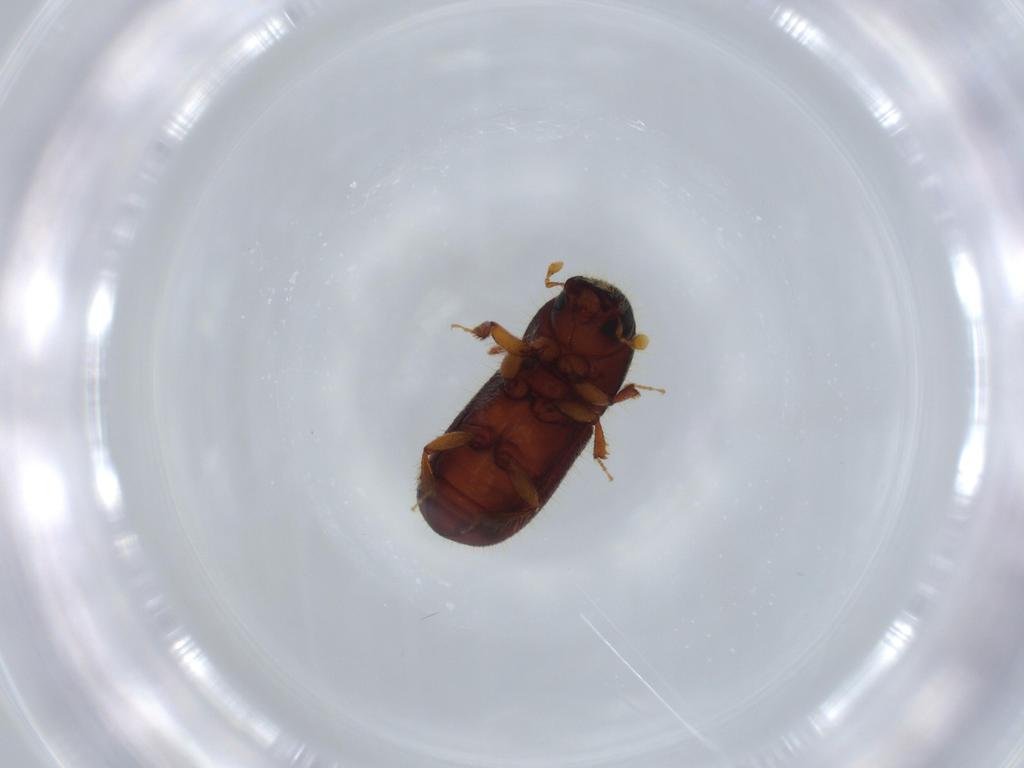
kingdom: Animalia
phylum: Arthropoda
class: Insecta
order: Coleoptera
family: Curculionidae
